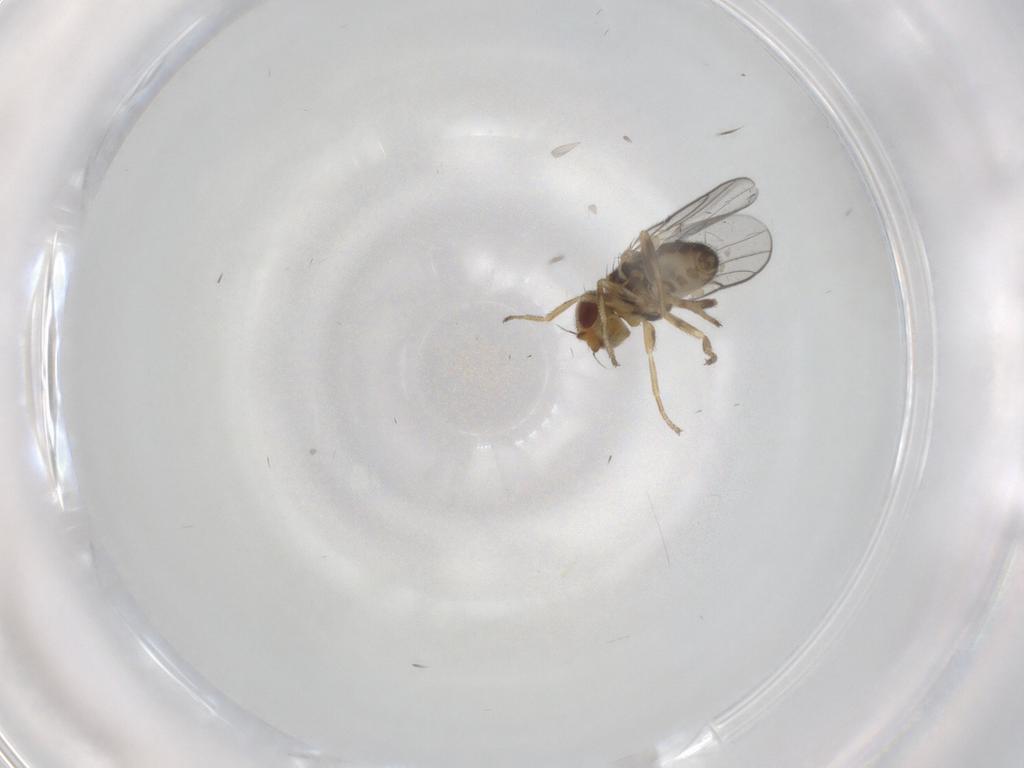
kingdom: Animalia
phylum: Arthropoda
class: Insecta
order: Diptera
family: Chloropidae
